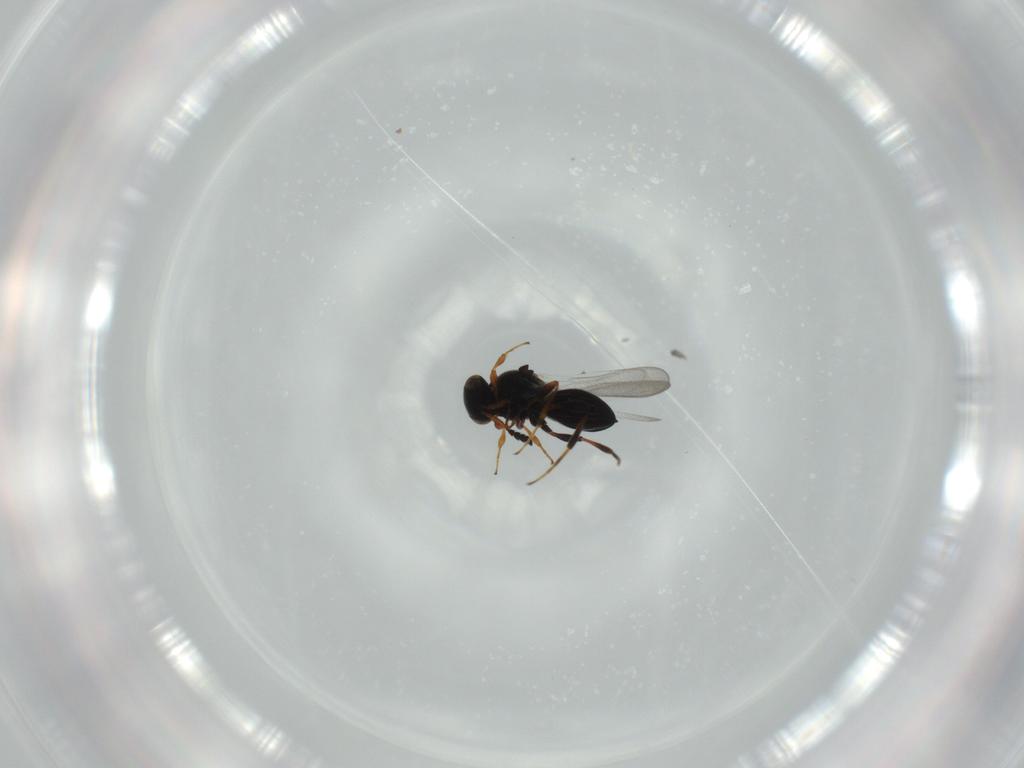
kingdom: Animalia
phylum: Arthropoda
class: Insecta
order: Hymenoptera
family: Platygastridae
